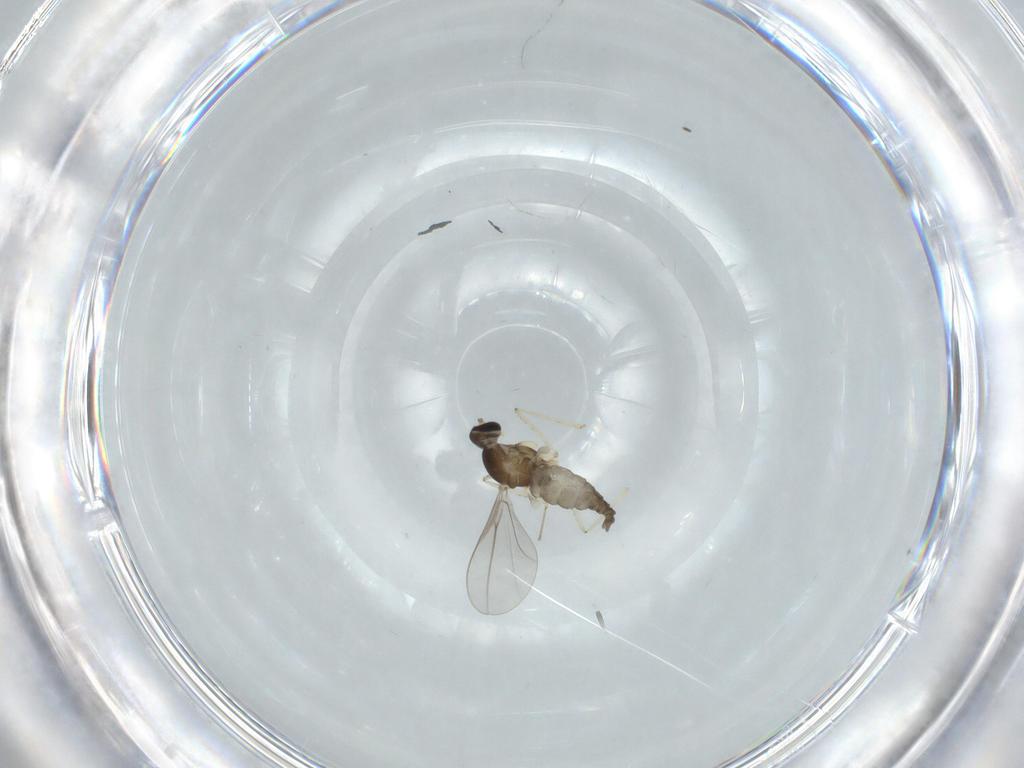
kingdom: Animalia
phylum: Arthropoda
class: Insecta
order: Diptera
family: Cecidomyiidae
